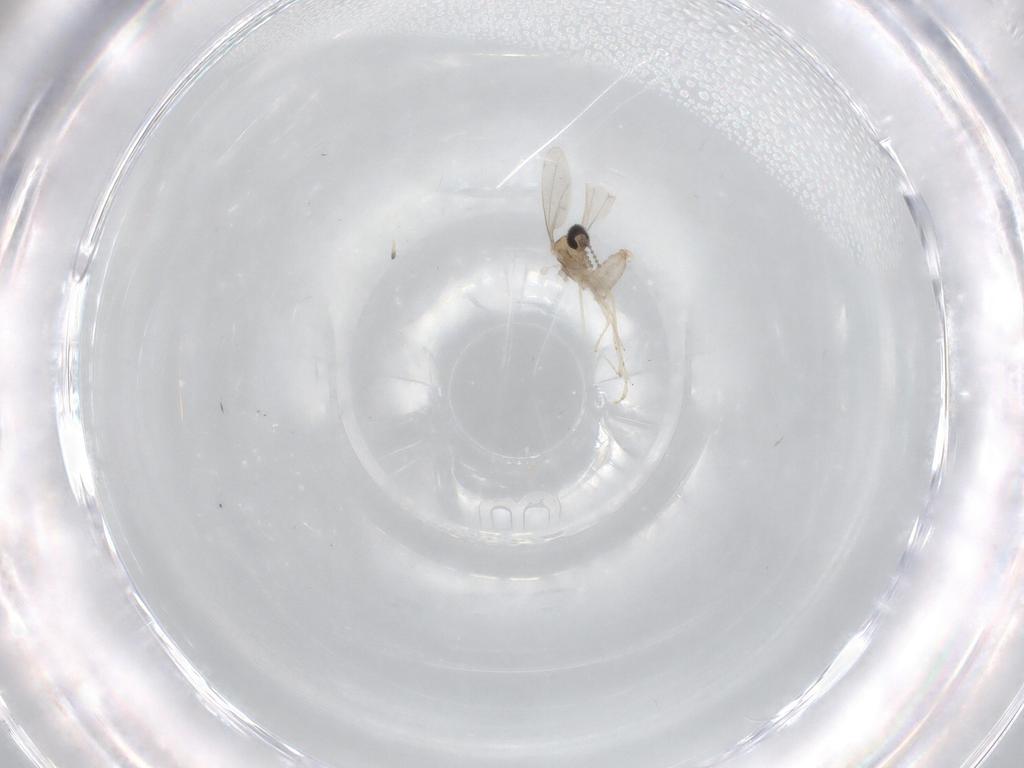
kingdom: Animalia
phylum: Arthropoda
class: Insecta
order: Diptera
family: Cecidomyiidae
